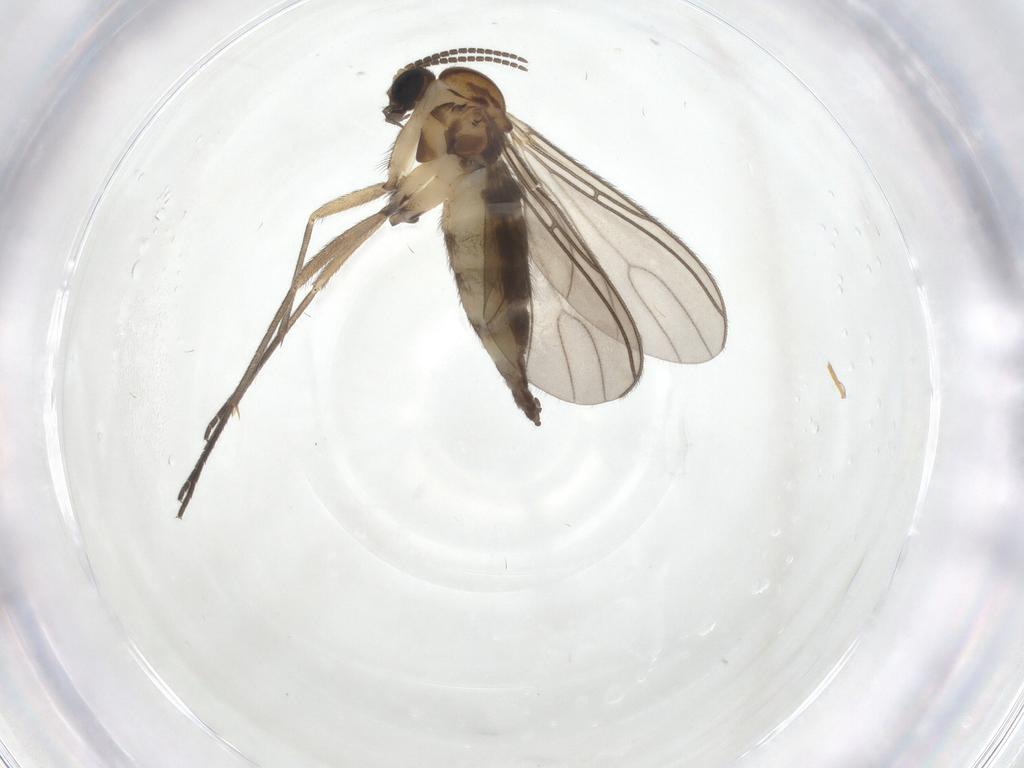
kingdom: Animalia
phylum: Arthropoda
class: Insecta
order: Diptera
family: Sciaridae
